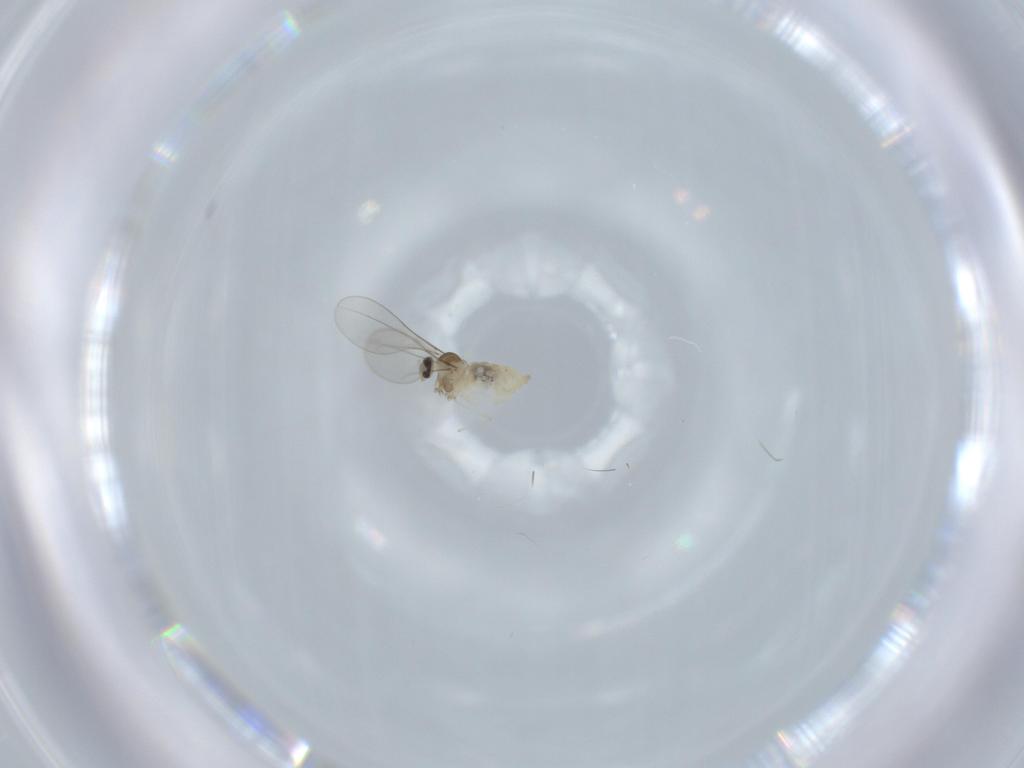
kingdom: Animalia
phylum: Arthropoda
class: Insecta
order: Diptera
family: Cecidomyiidae
